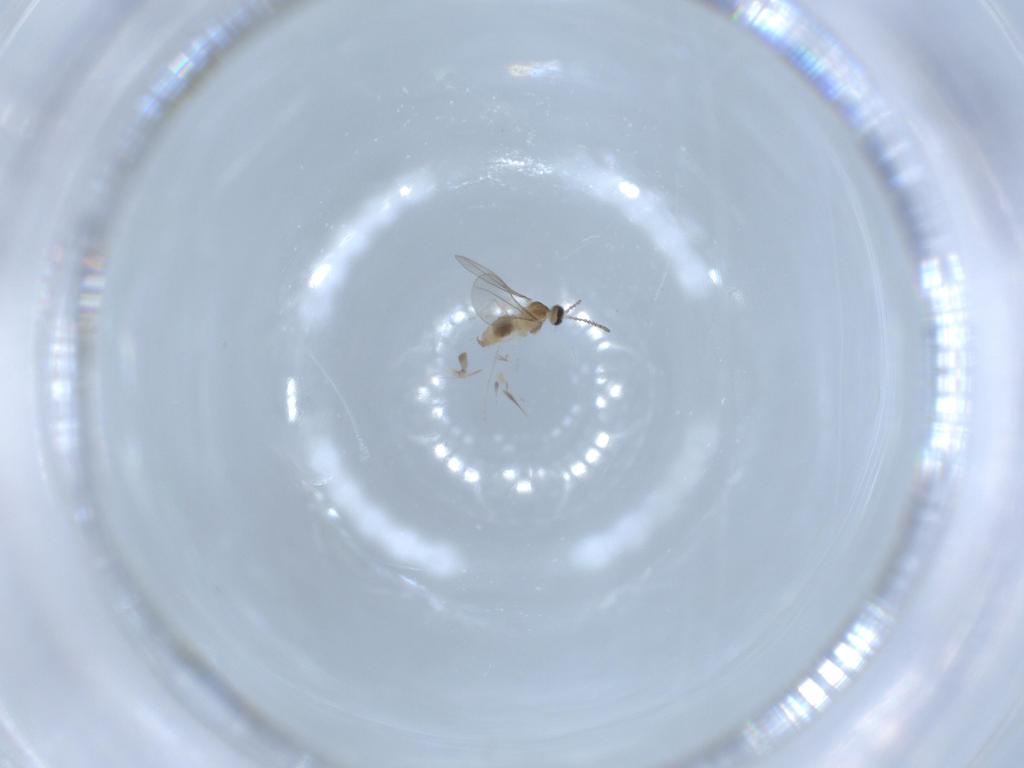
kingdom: Animalia
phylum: Arthropoda
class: Insecta
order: Diptera
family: Cecidomyiidae
